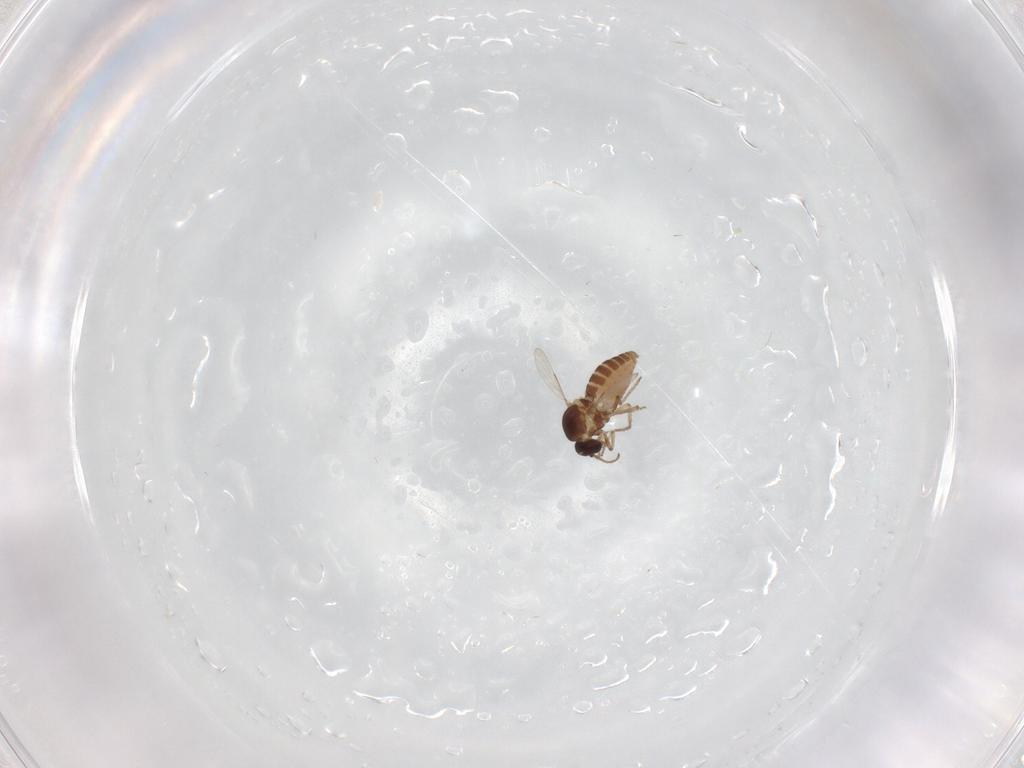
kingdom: Animalia
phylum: Arthropoda
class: Insecta
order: Diptera
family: Ceratopogonidae
